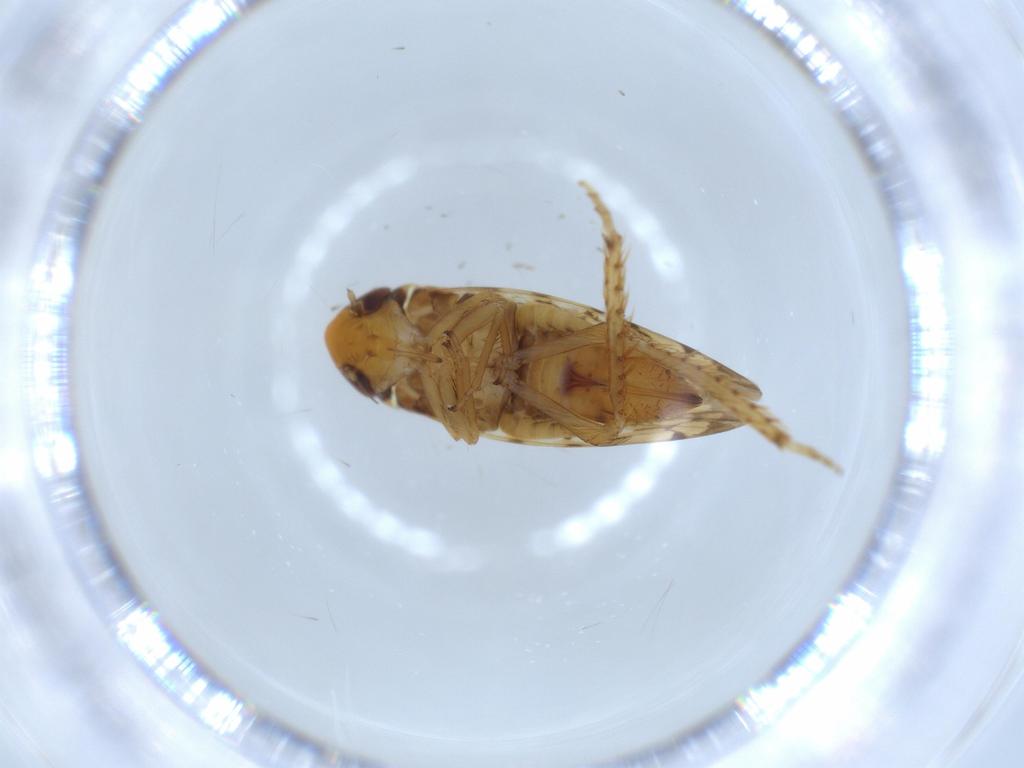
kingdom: Animalia
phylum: Arthropoda
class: Insecta
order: Hemiptera
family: Cicadellidae
